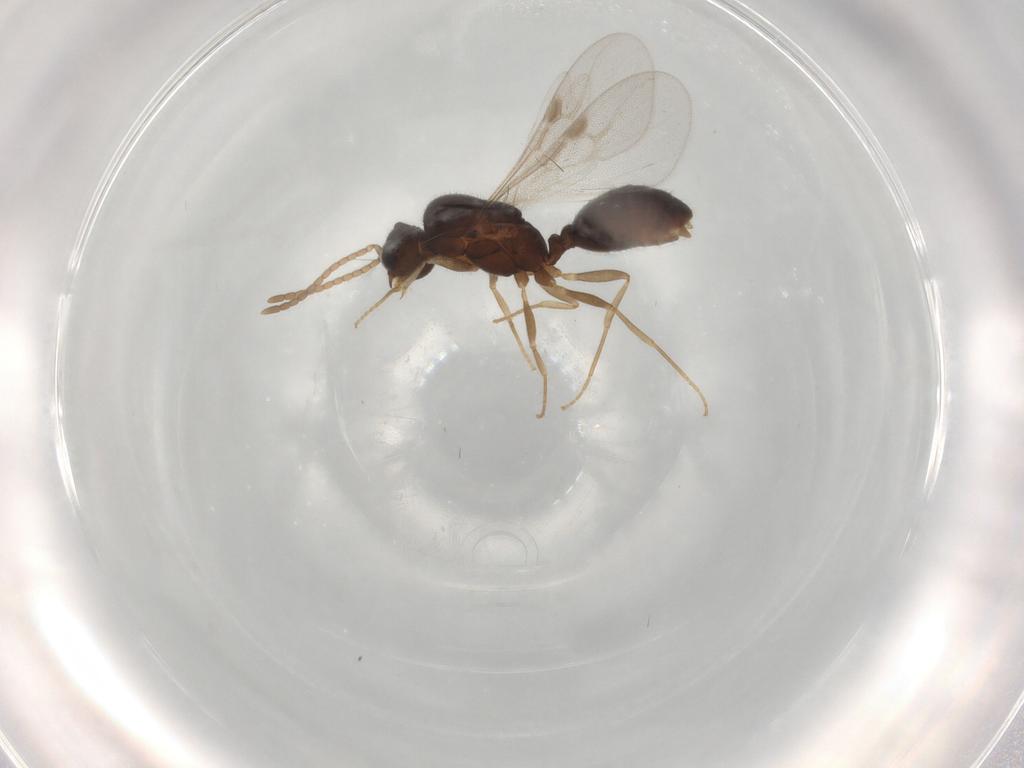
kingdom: Animalia
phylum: Arthropoda
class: Insecta
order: Hymenoptera
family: Formicidae
